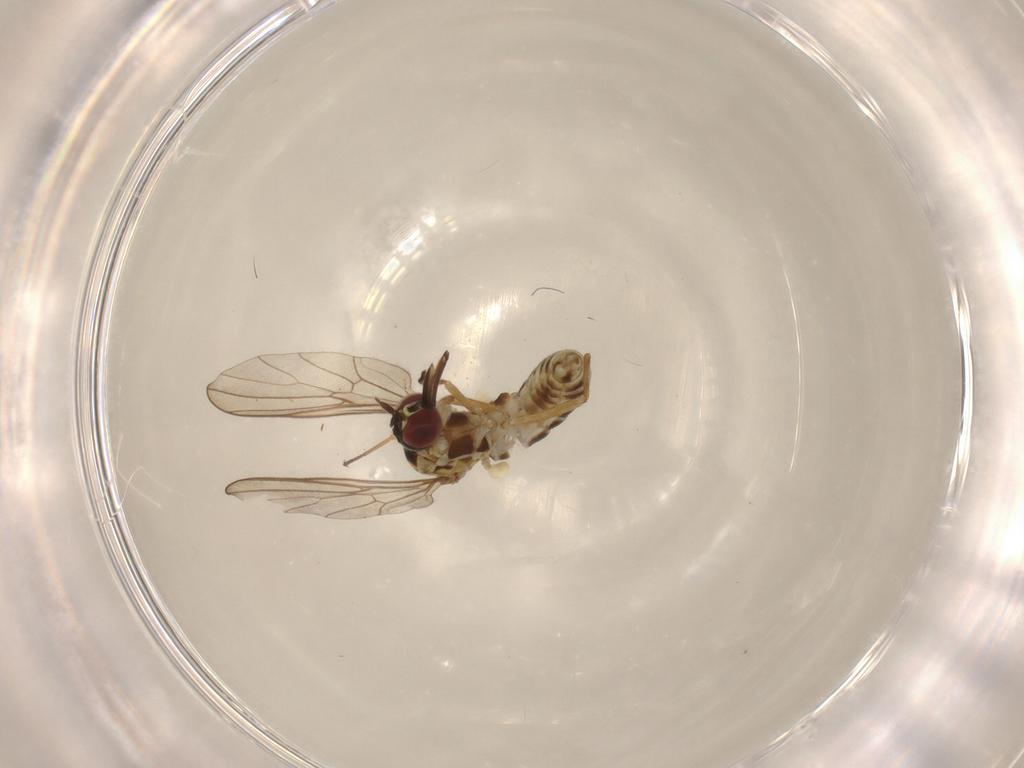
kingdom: Animalia
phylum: Arthropoda
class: Insecta
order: Diptera
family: Bombyliidae
